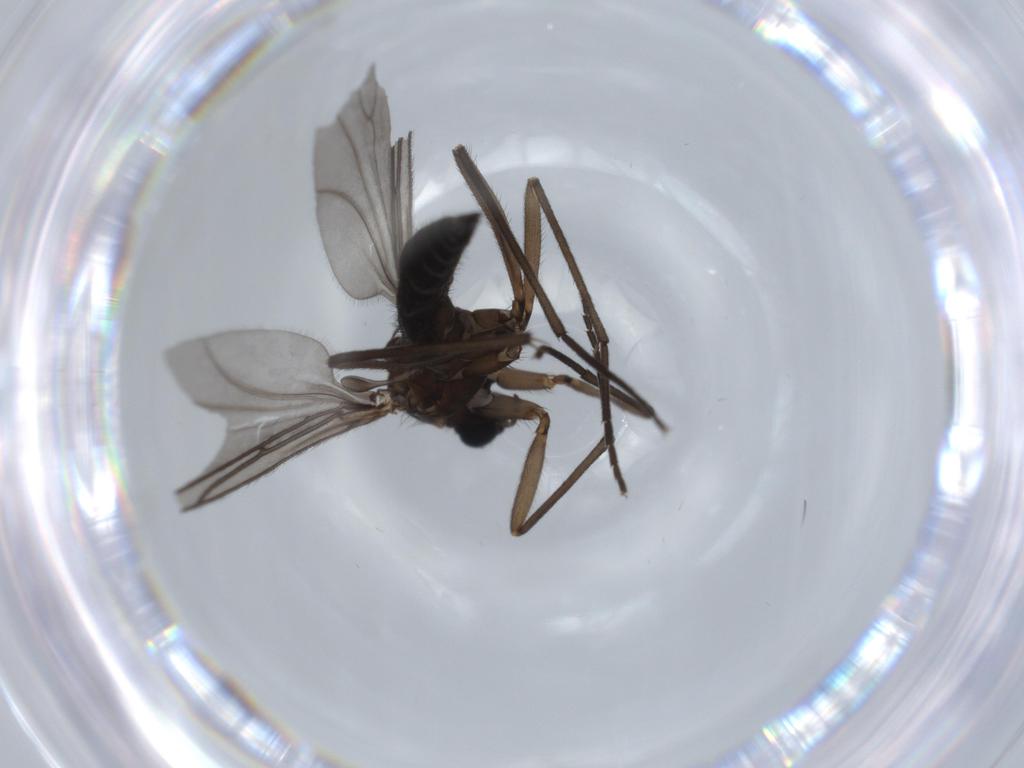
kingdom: Animalia
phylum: Arthropoda
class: Insecta
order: Diptera
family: Sciaridae
